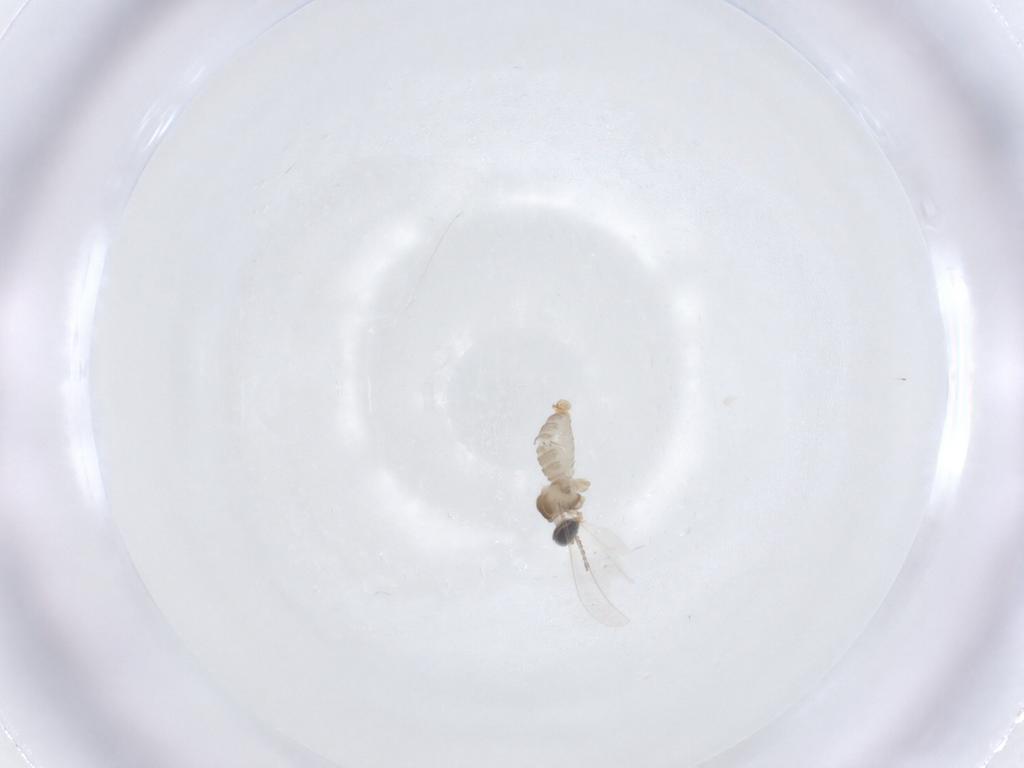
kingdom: Animalia
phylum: Arthropoda
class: Insecta
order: Diptera
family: Cecidomyiidae
